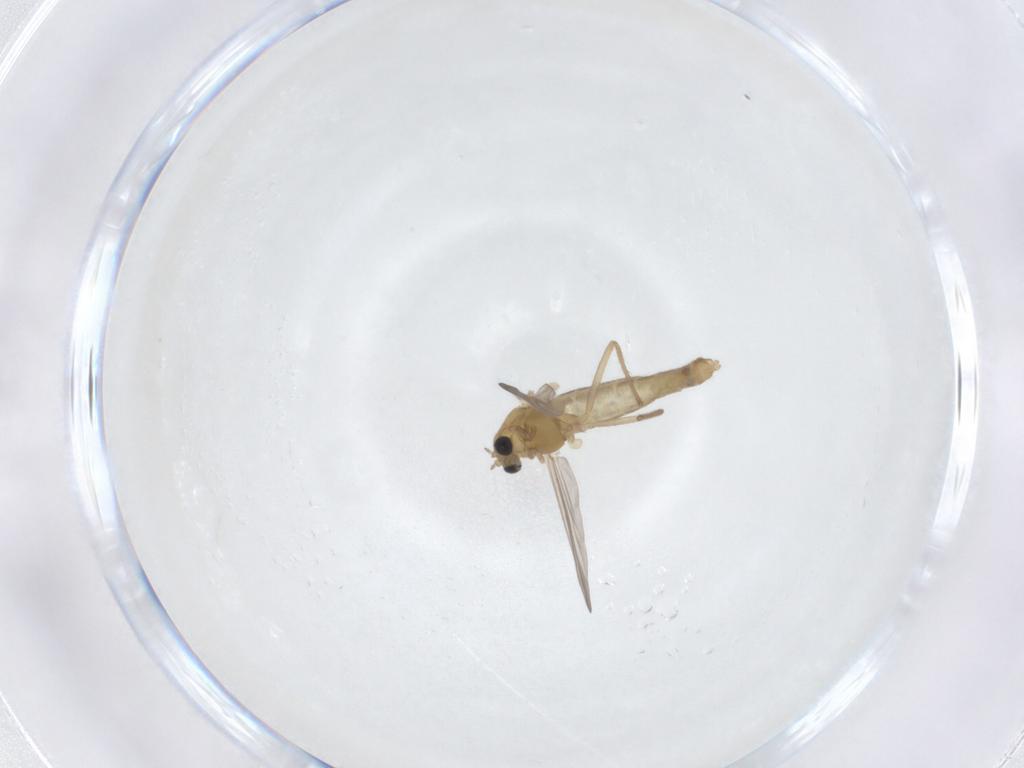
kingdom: Animalia
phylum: Arthropoda
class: Insecta
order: Diptera
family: Chironomidae
